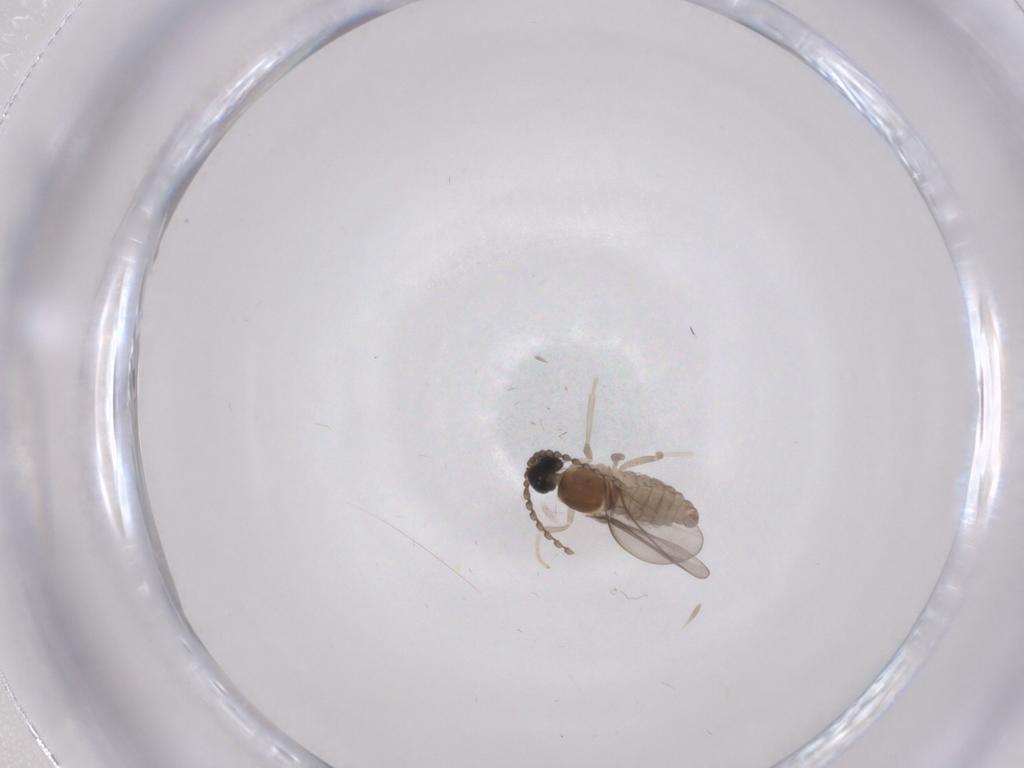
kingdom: Animalia
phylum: Arthropoda
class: Insecta
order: Diptera
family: Cecidomyiidae
